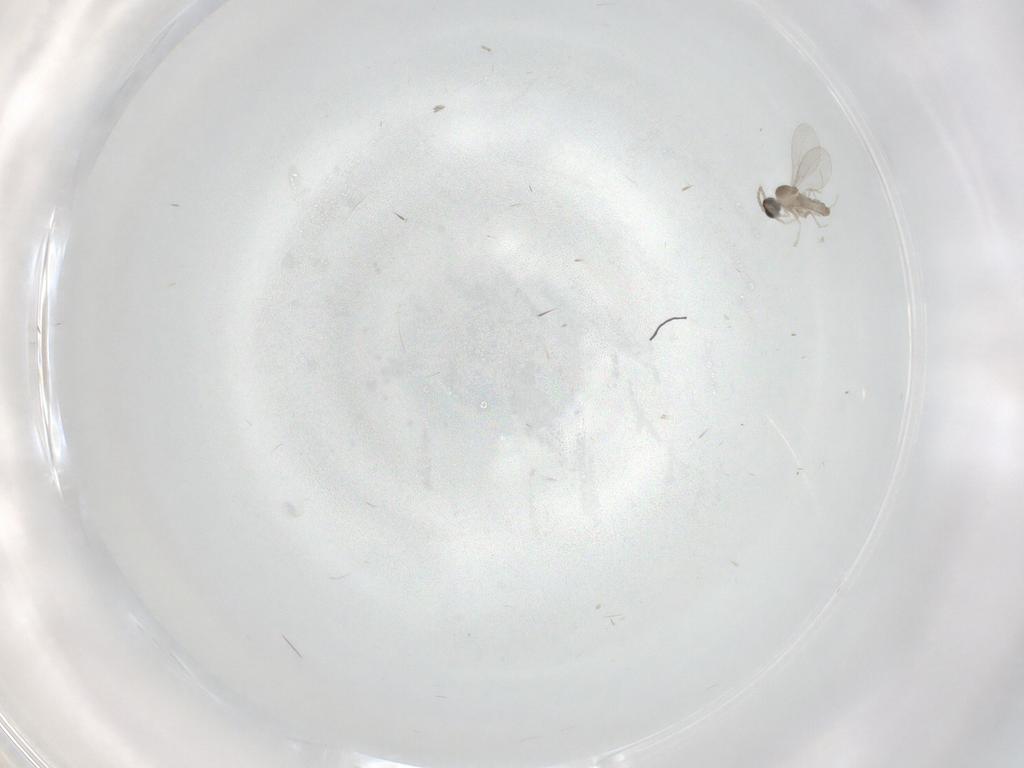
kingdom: Animalia
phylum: Arthropoda
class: Insecta
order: Diptera
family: Cecidomyiidae
